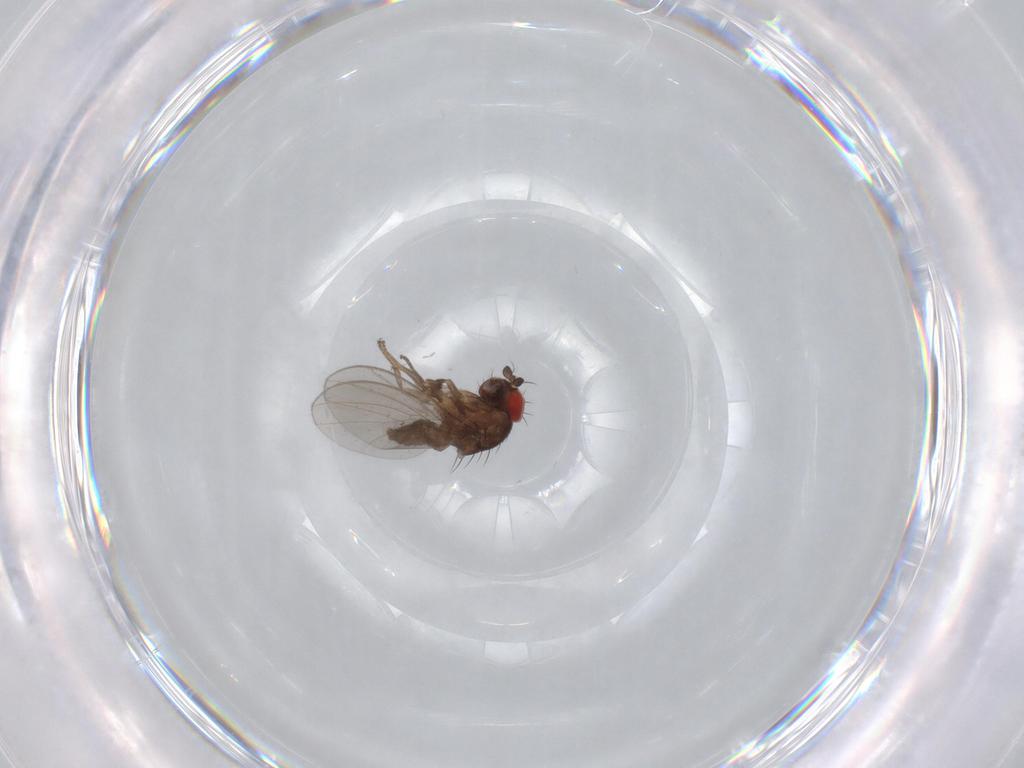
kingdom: Animalia
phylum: Arthropoda
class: Insecta
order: Diptera
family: Drosophilidae
